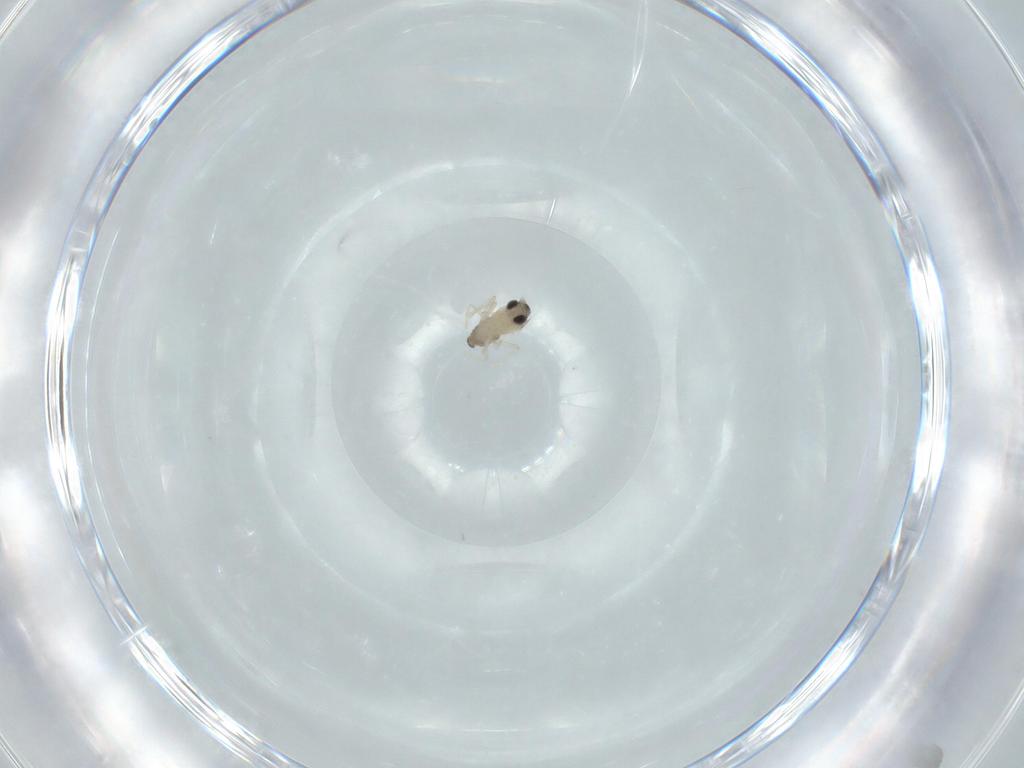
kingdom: Animalia
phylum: Arthropoda
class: Insecta
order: Diptera
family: Cecidomyiidae
